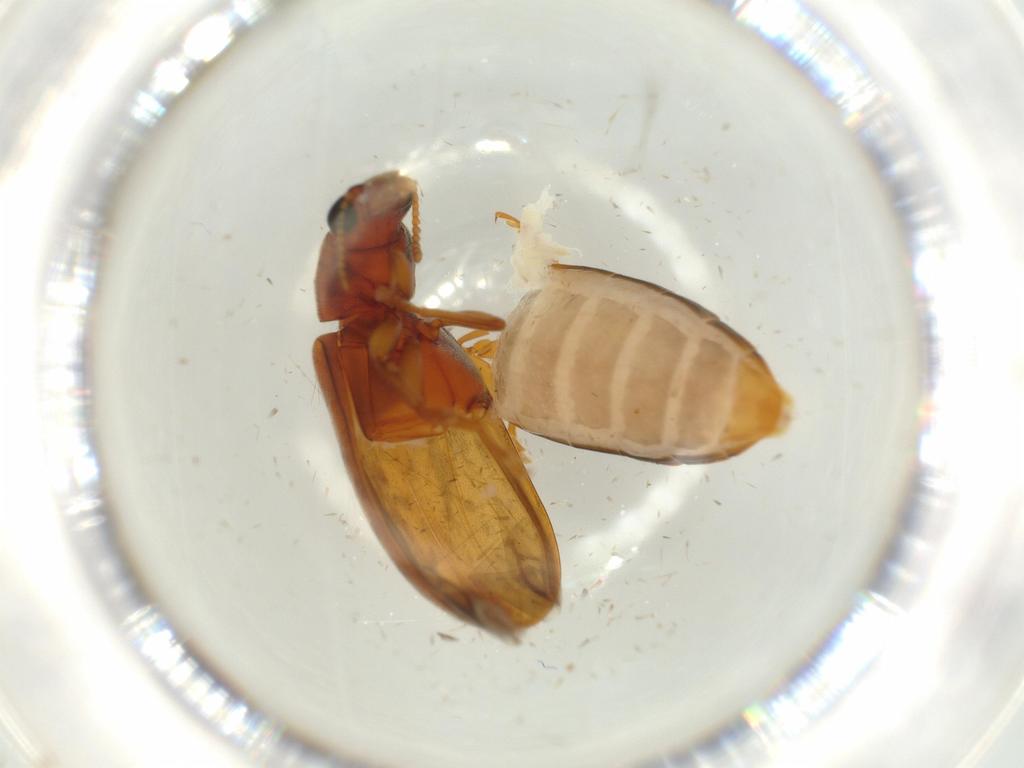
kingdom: Animalia
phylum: Arthropoda
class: Insecta
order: Coleoptera
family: Mycteridae
